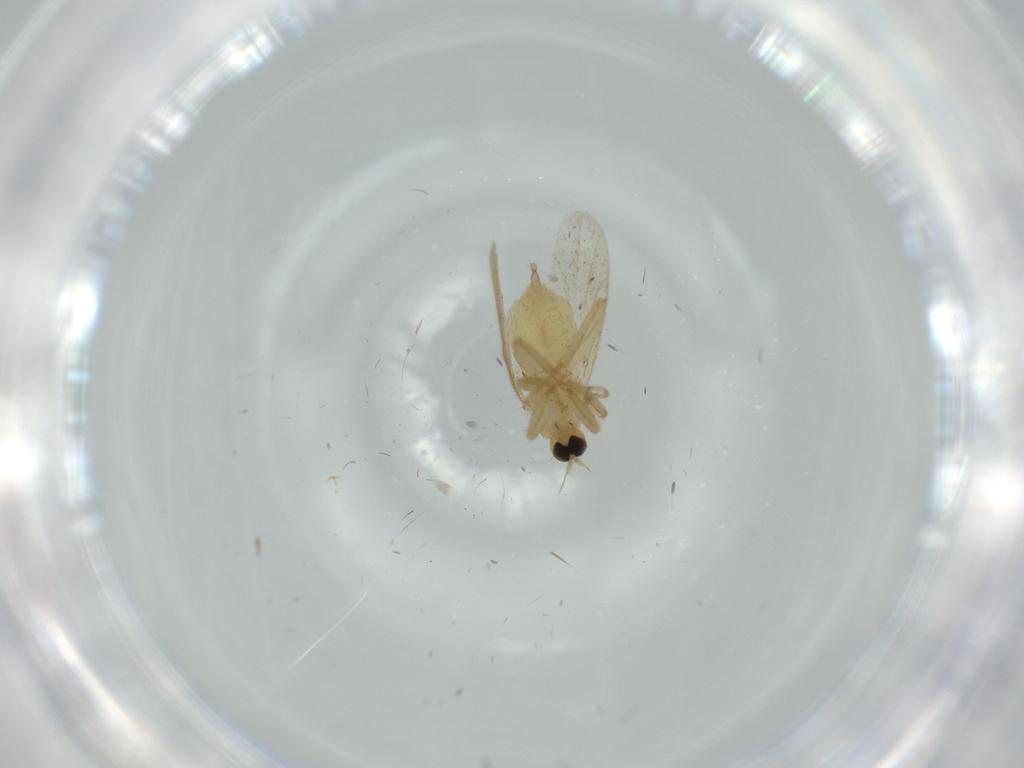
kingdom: Animalia
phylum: Arthropoda
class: Insecta
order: Diptera
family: Hybotidae
